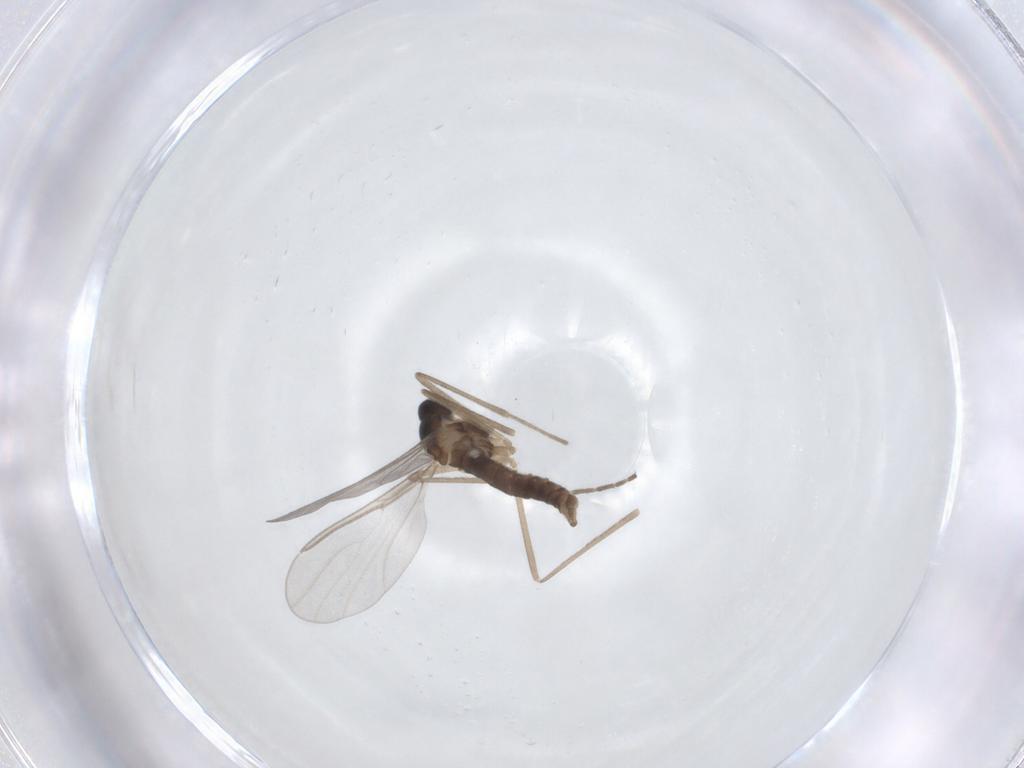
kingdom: Animalia
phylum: Arthropoda
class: Insecta
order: Diptera
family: Cecidomyiidae
